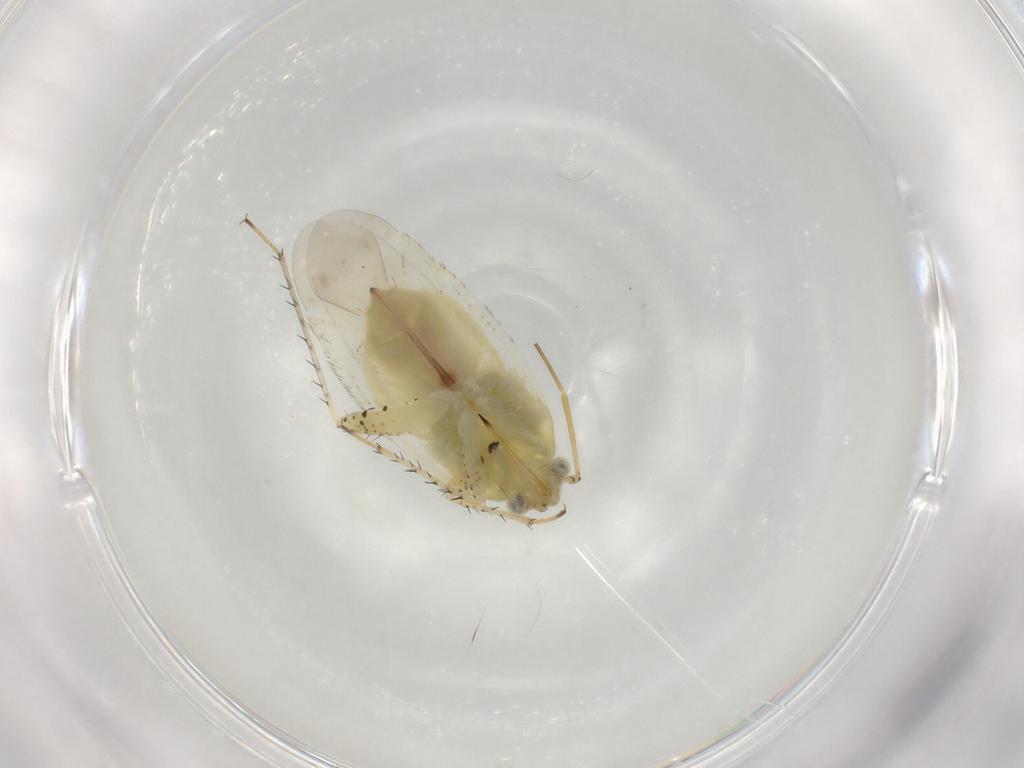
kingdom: Animalia
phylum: Arthropoda
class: Insecta
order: Hemiptera
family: Miridae
